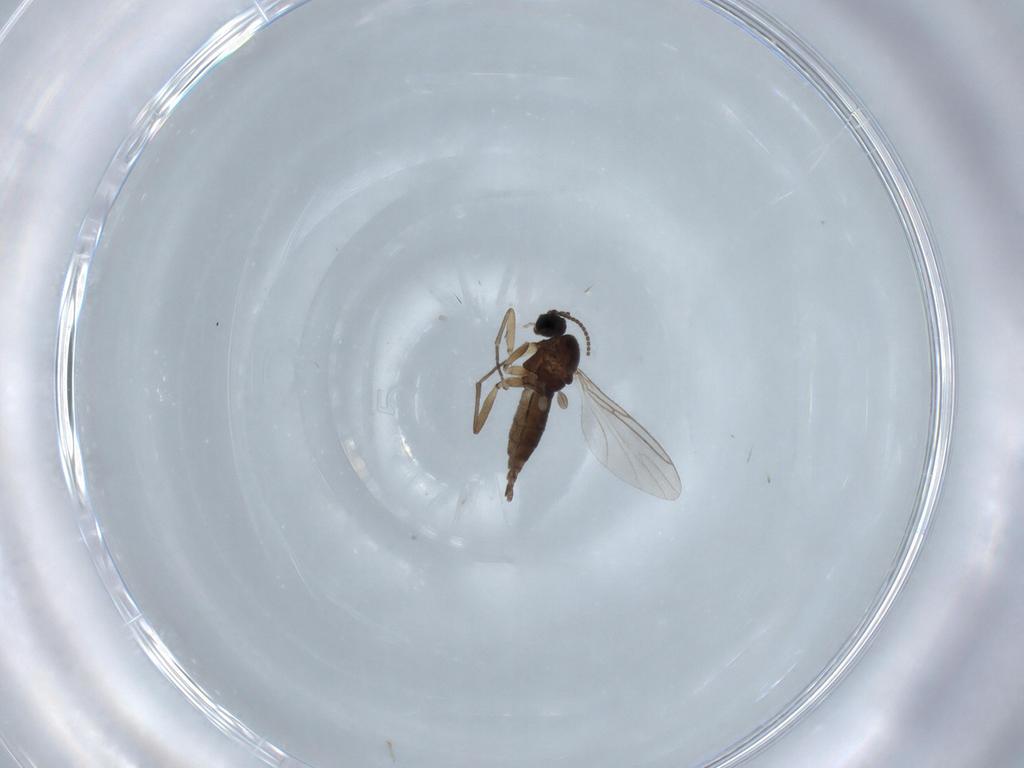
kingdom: Animalia
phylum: Arthropoda
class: Insecta
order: Diptera
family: Sciaridae
